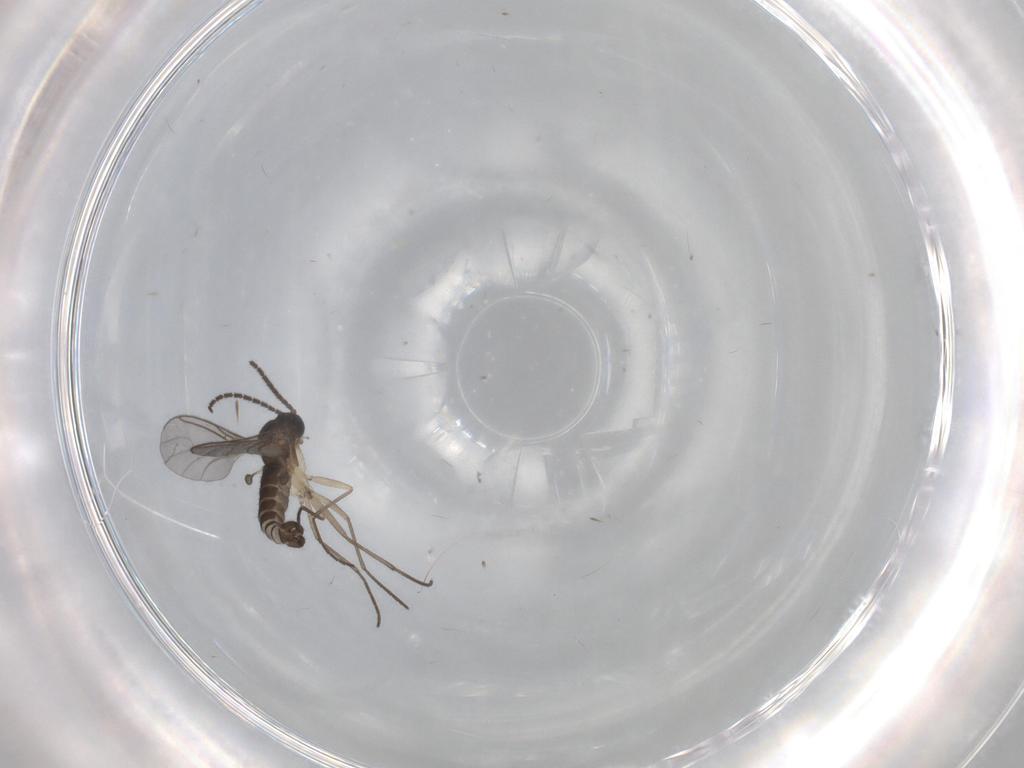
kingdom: Animalia
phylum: Arthropoda
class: Insecta
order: Diptera
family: Sciaridae
